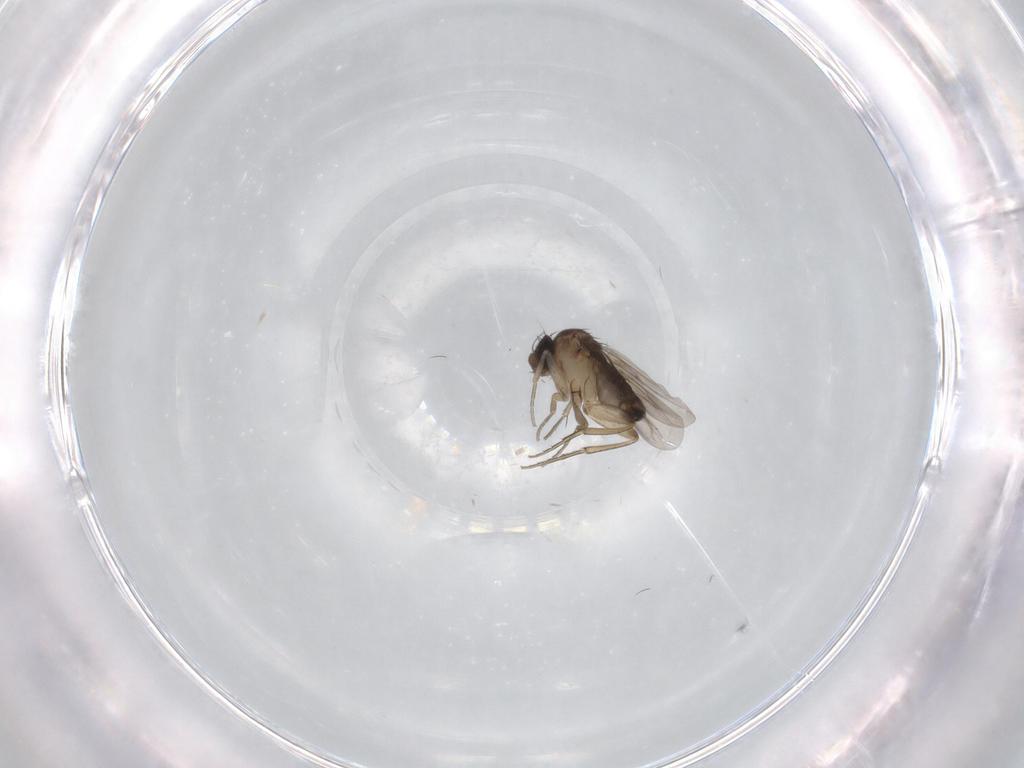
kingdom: Animalia
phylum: Arthropoda
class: Insecta
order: Diptera
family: Phoridae
